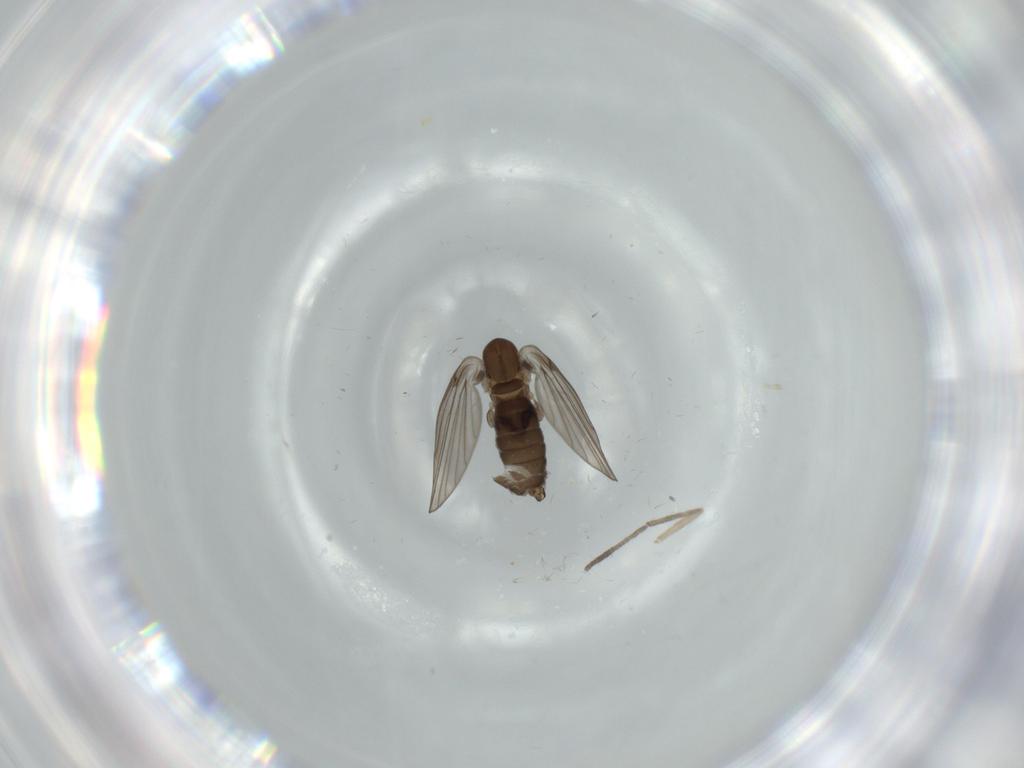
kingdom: Animalia
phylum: Arthropoda
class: Insecta
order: Diptera
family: Psychodidae
